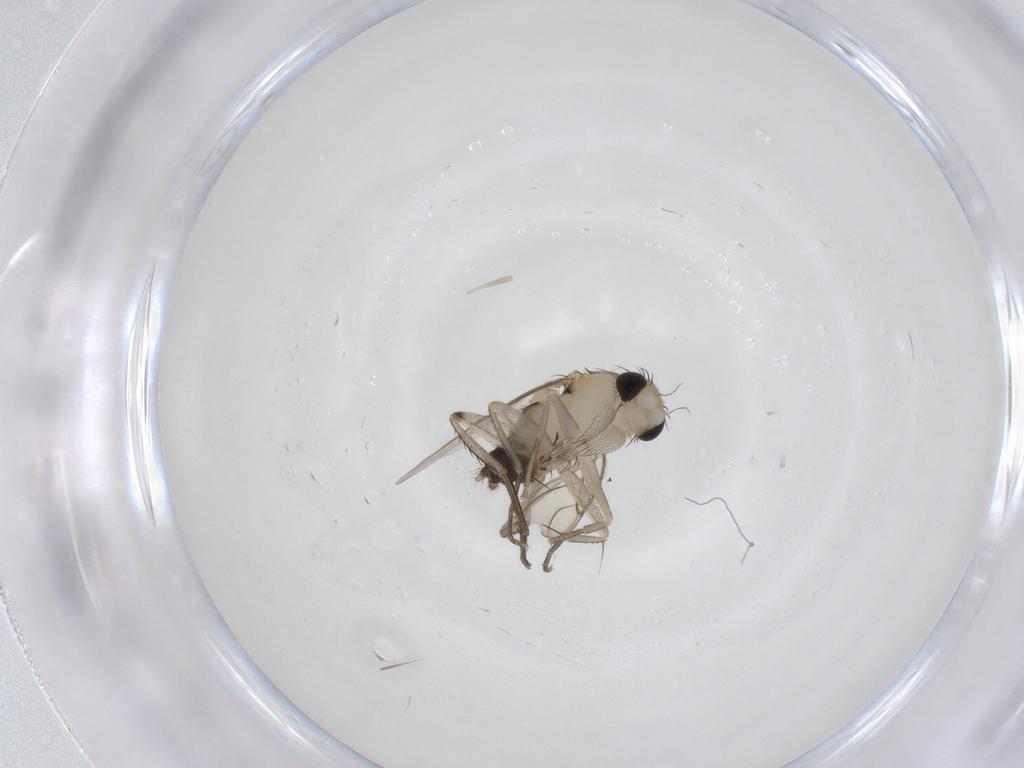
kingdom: Animalia
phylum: Arthropoda
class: Insecta
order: Diptera
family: Phoridae
